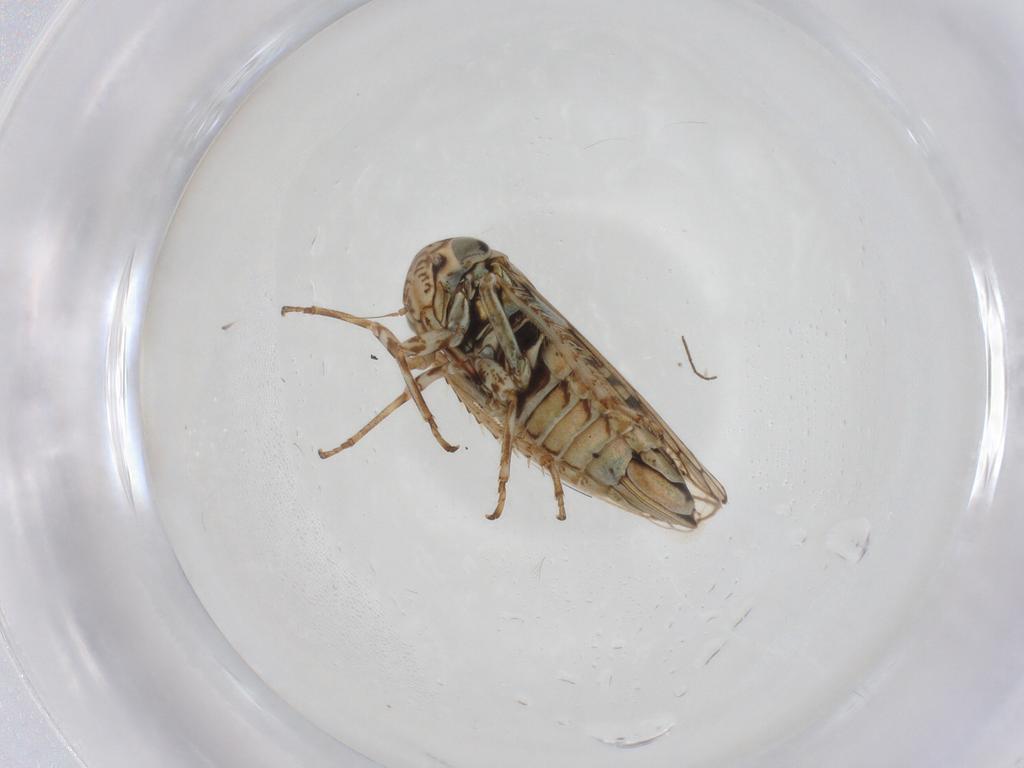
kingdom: Animalia
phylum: Arthropoda
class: Insecta
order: Hemiptera
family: Cicadellidae
